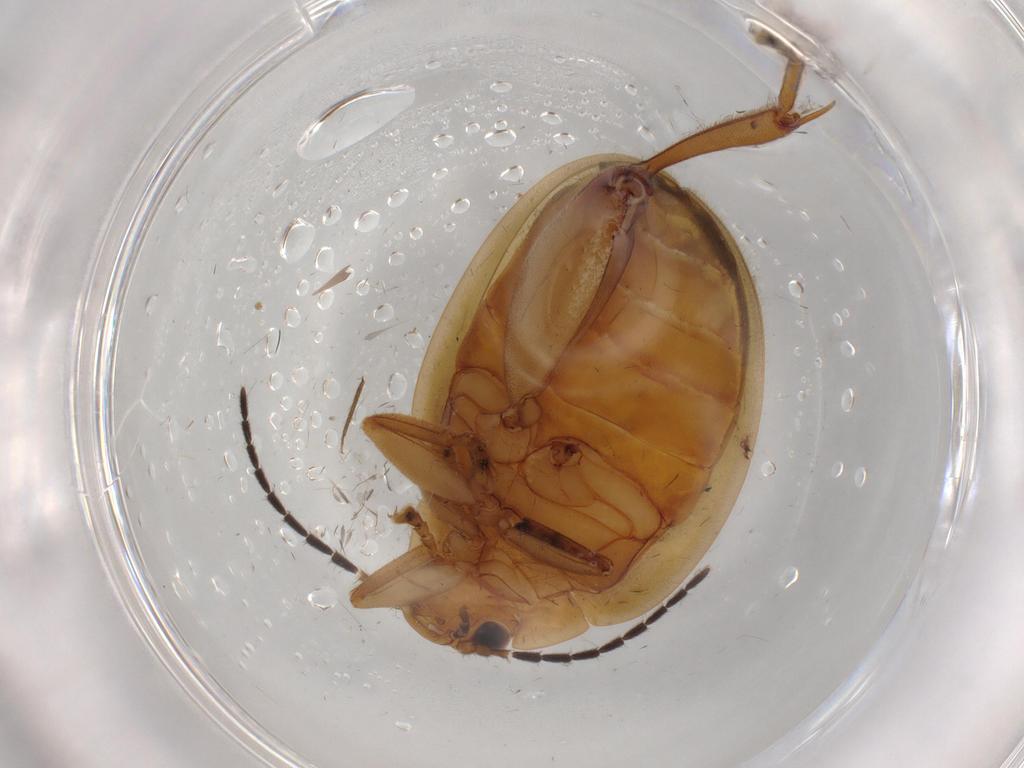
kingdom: Animalia
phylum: Arthropoda
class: Insecta
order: Coleoptera
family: Scirtidae
